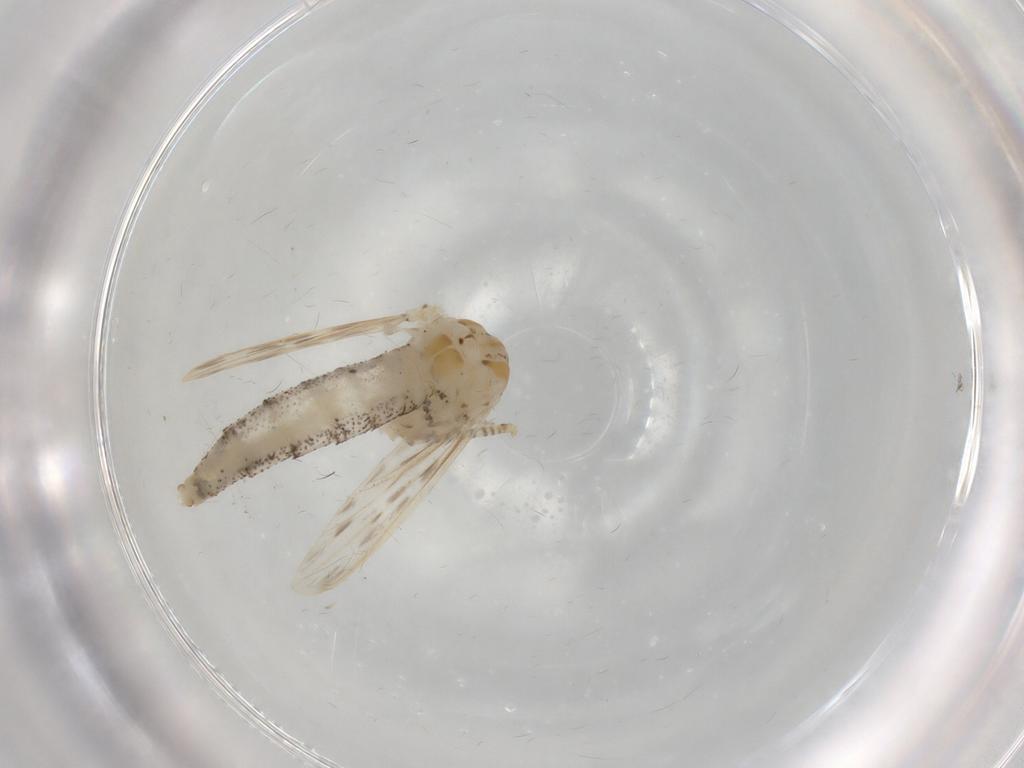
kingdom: Animalia
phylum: Arthropoda
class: Insecta
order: Diptera
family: Chaoboridae
